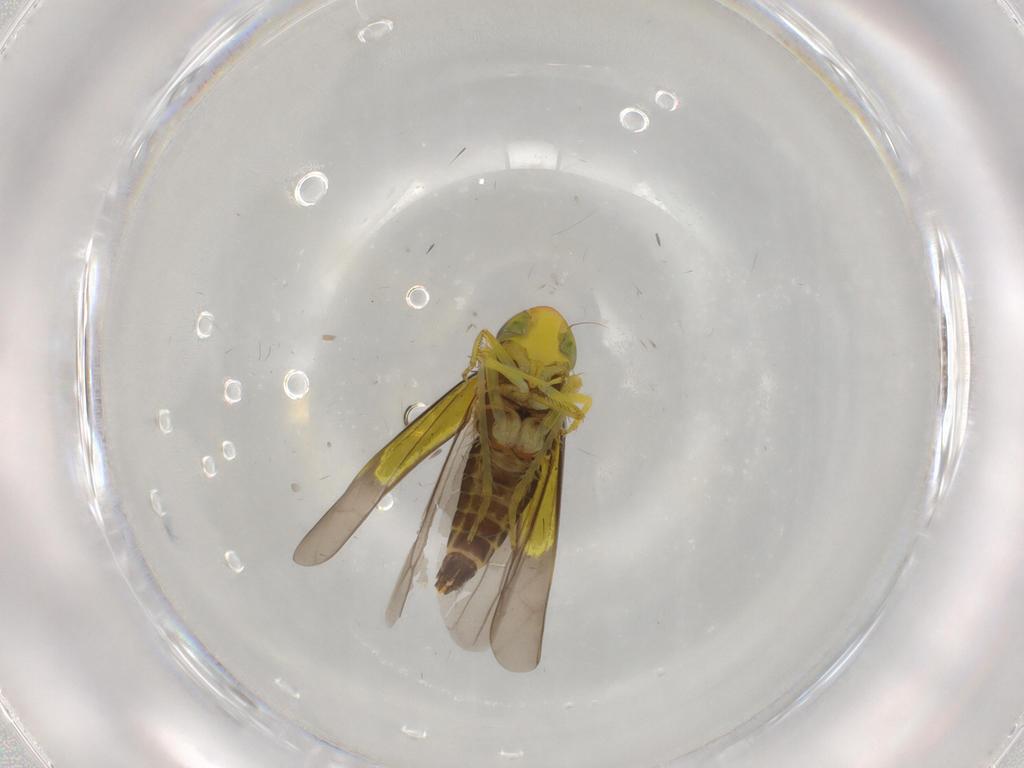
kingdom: Animalia
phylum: Arthropoda
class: Insecta
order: Hemiptera
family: Cicadellidae
